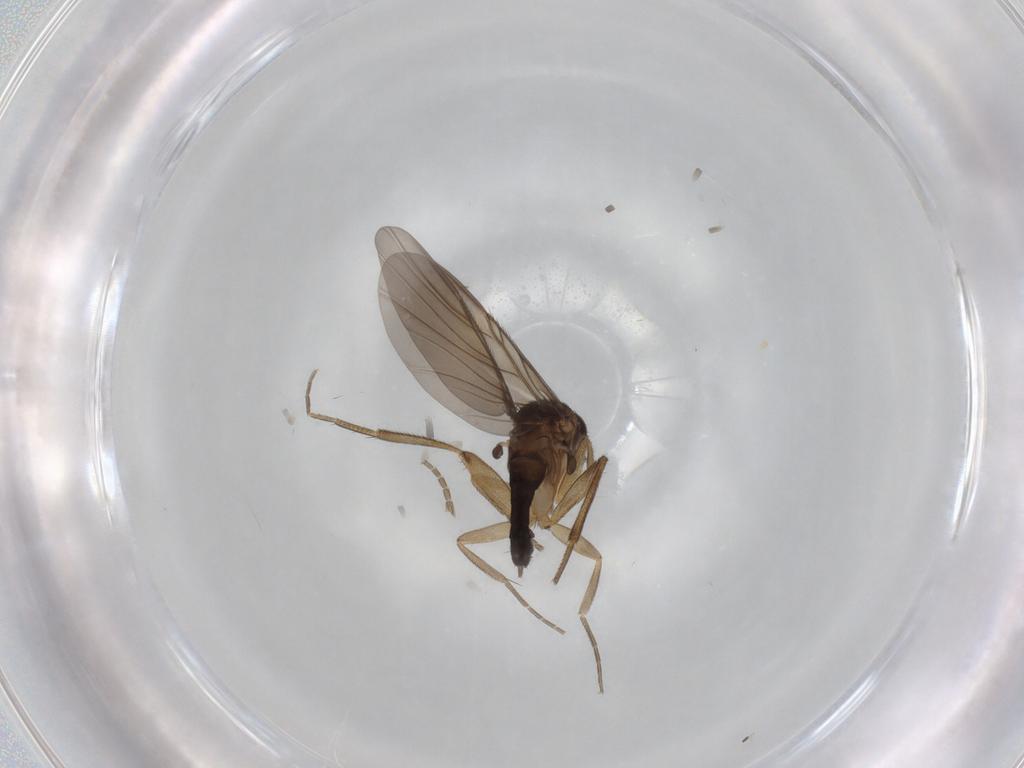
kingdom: Animalia
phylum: Arthropoda
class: Insecta
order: Diptera
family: Phoridae
